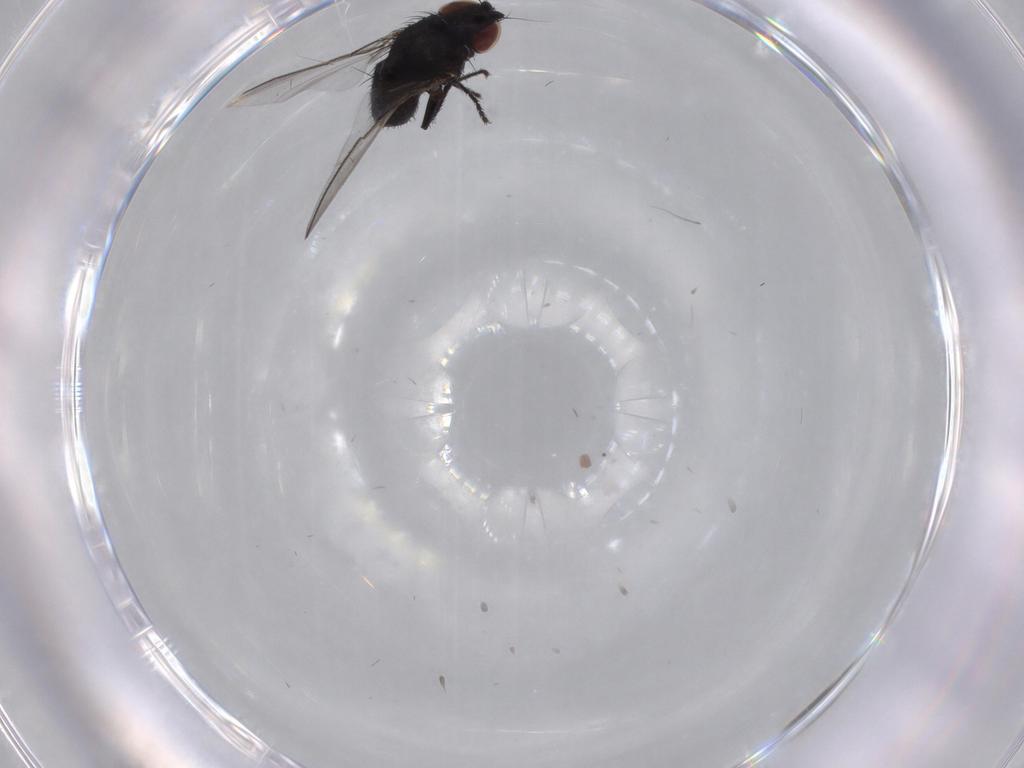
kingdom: Animalia
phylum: Arthropoda
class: Insecta
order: Diptera
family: Milichiidae
